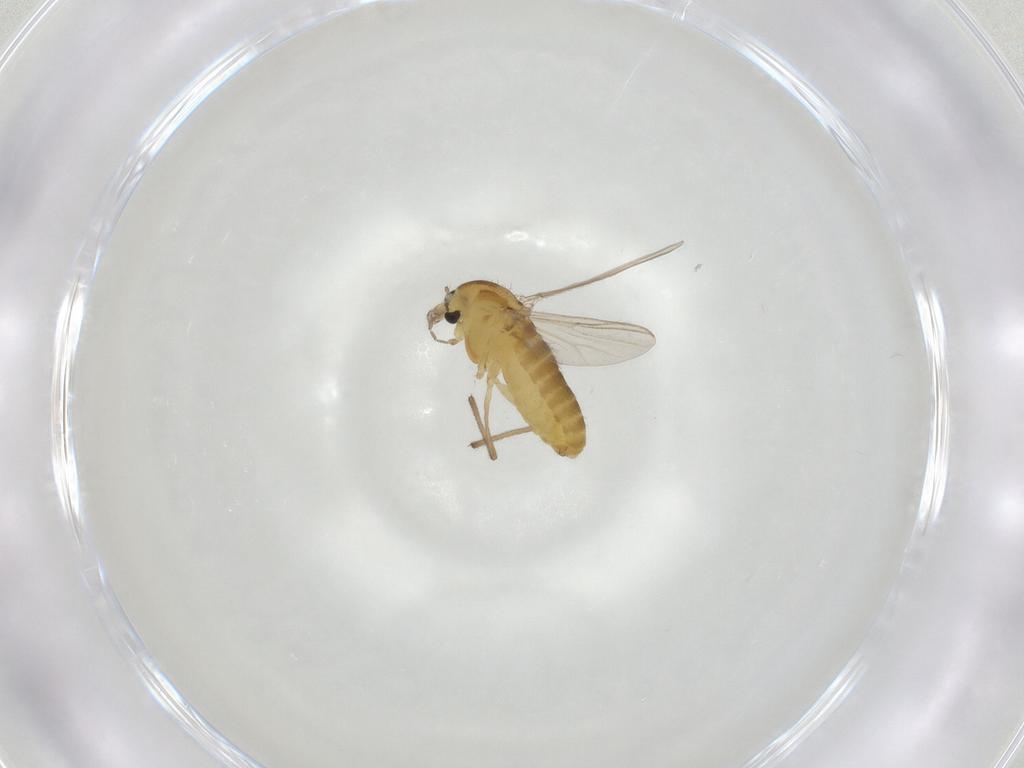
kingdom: Animalia
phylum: Arthropoda
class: Insecta
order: Diptera
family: Chironomidae
